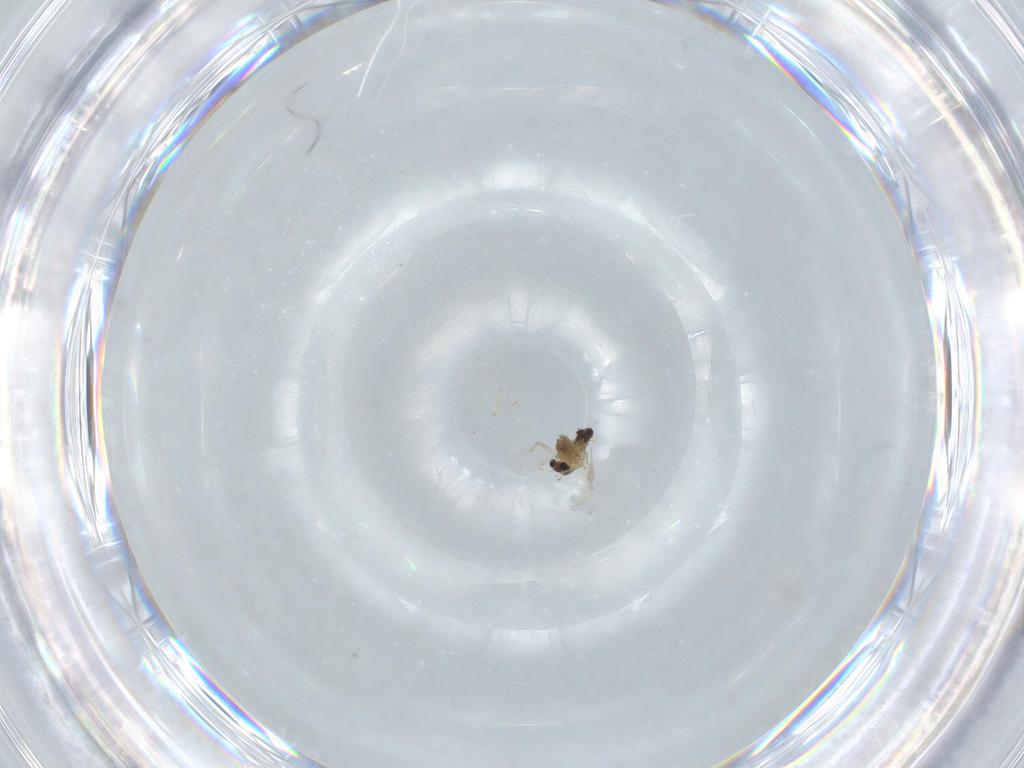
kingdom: Animalia
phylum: Arthropoda
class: Insecta
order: Diptera
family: Chironomidae
